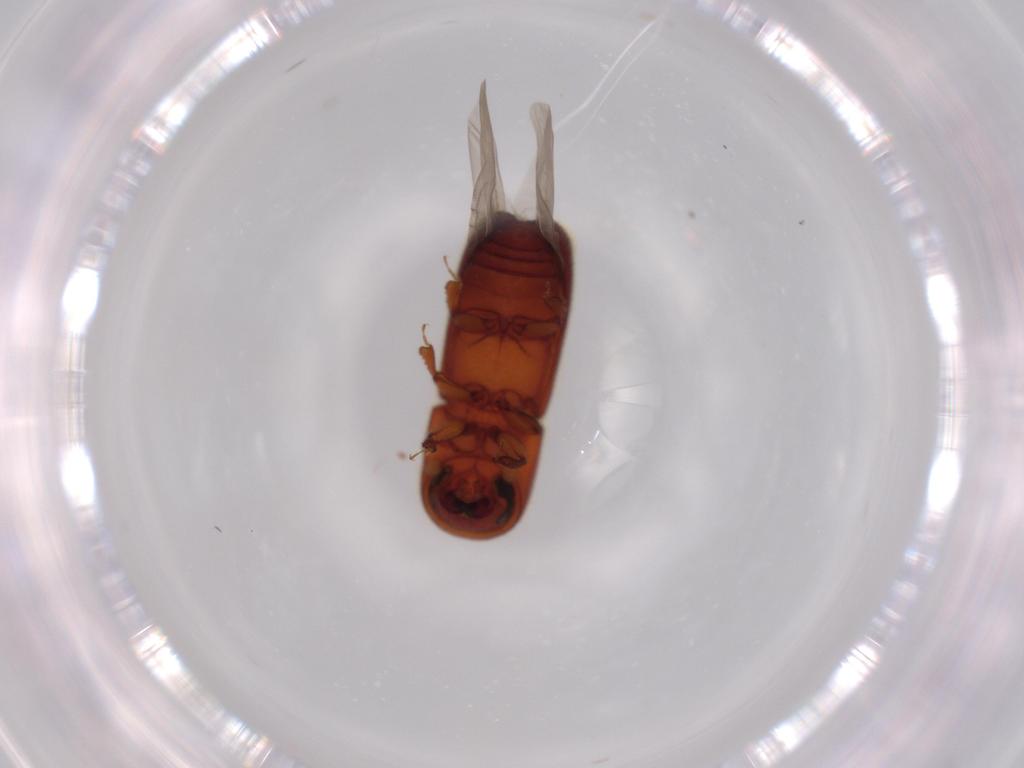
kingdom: Animalia
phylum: Arthropoda
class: Insecta
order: Coleoptera
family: Curculionidae
